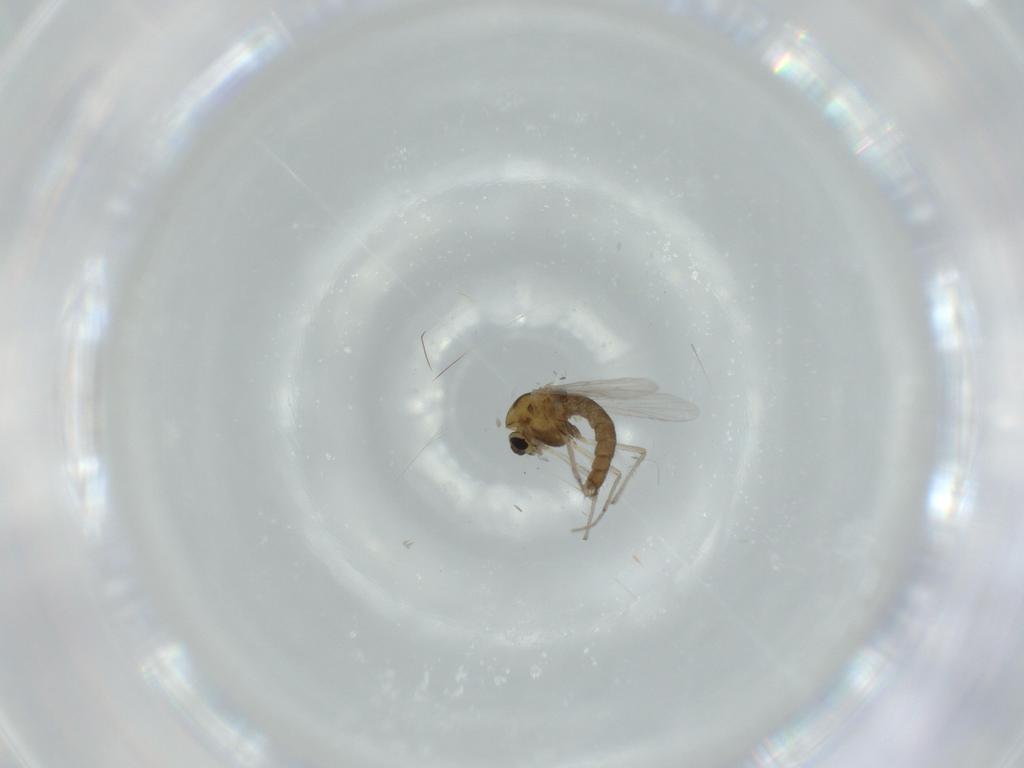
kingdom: Animalia
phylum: Arthropoda
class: Insecta
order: Diptera
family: Chironomidae
